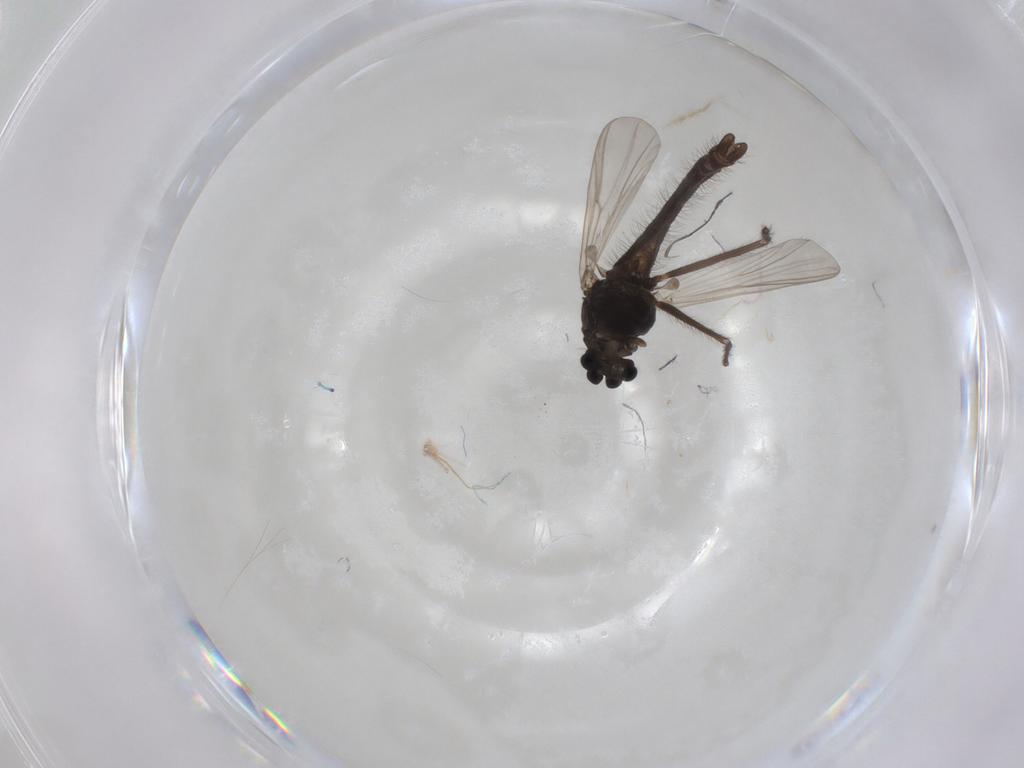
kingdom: Animalia
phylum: Arthropoda
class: Insecta
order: Diptera
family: Chironomidae
